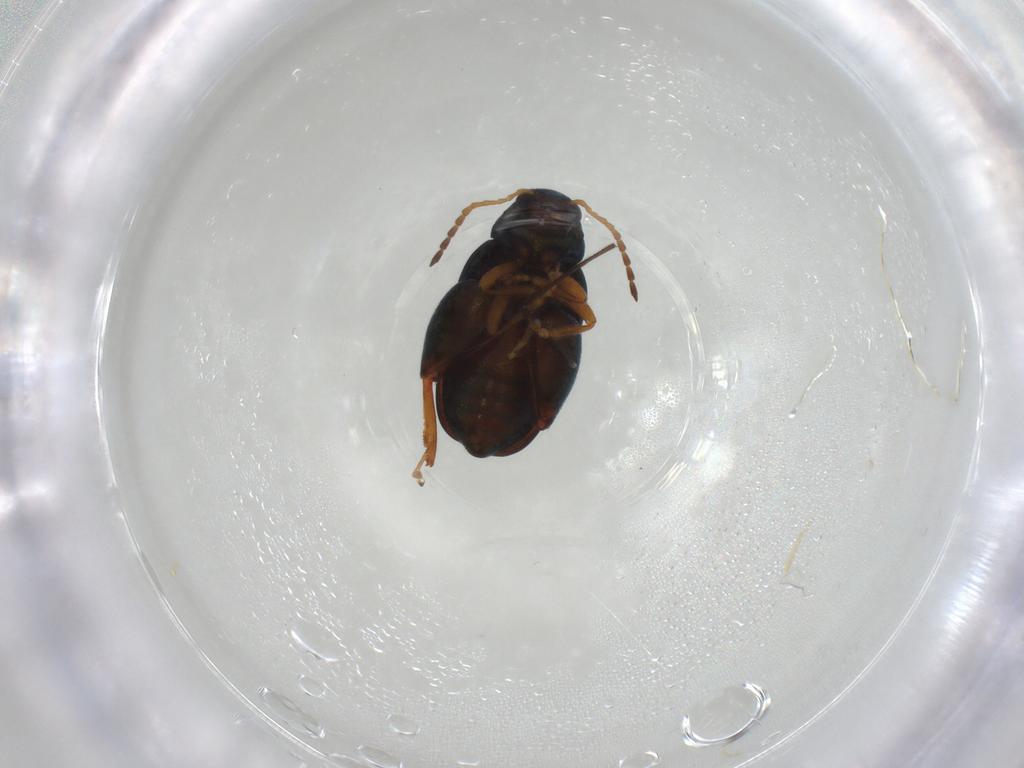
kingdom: Animalia
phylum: Arthropoda
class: Insecta
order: Coleoptera
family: Chrysomelidae
